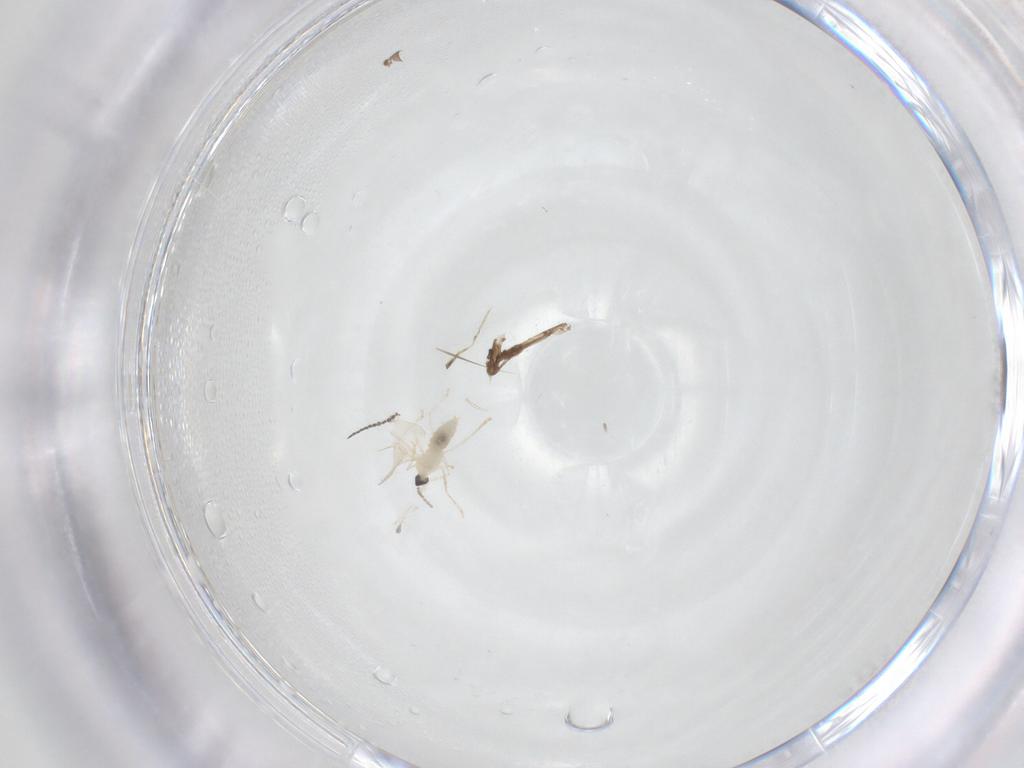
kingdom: Animalia
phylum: Arthropoda
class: Insecta
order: Diptera
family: Cecidomyiidae
